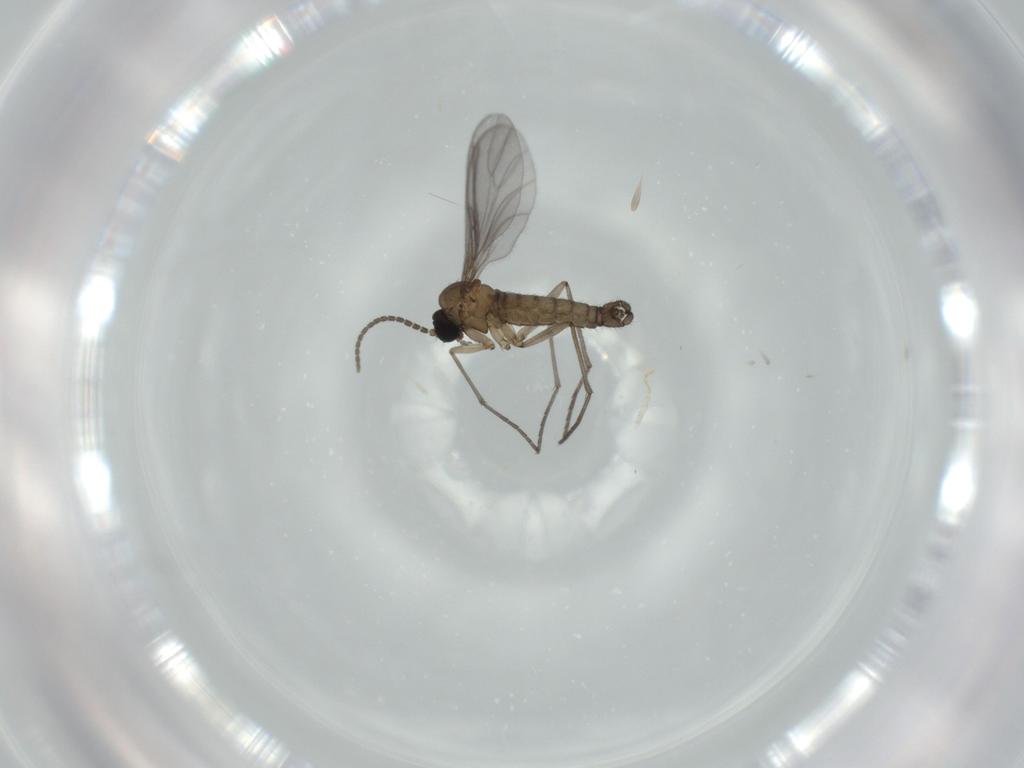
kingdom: Animalia
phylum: Arthropoda
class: Insecta
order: Diptera
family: Sciaridae
